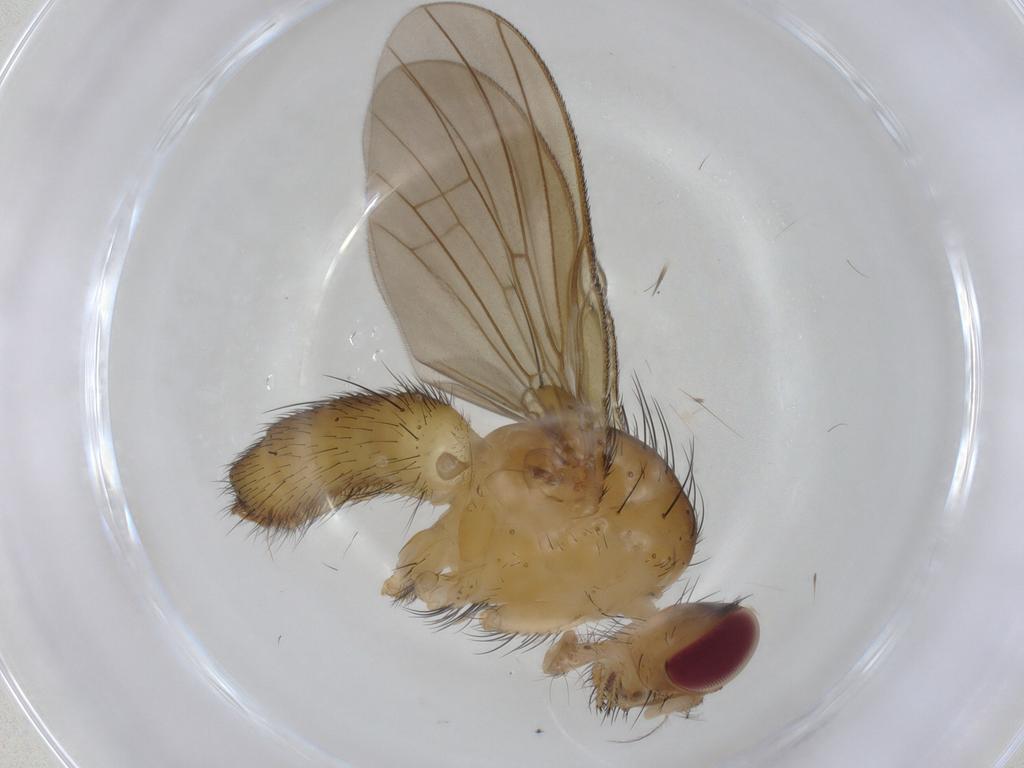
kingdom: Animalia
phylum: Arthropoda
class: Insecta
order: Diptera
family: Calliphoridae
